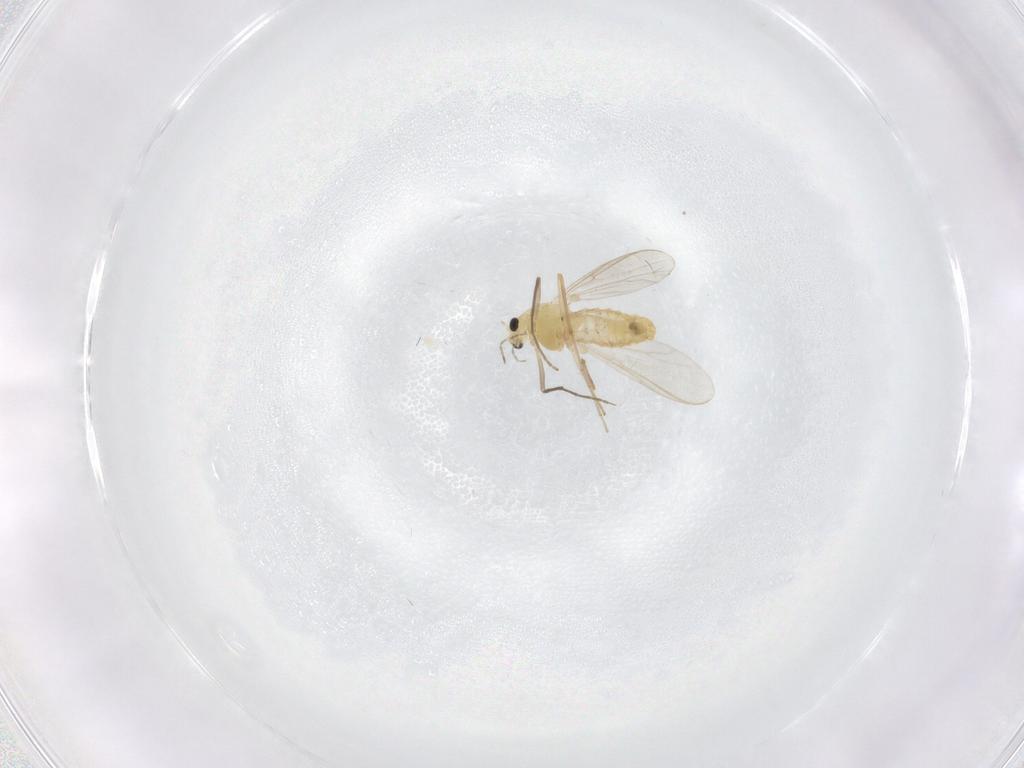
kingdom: Animalia
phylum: Arthropoda
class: Insecta
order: Diptera
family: Chironomidae
